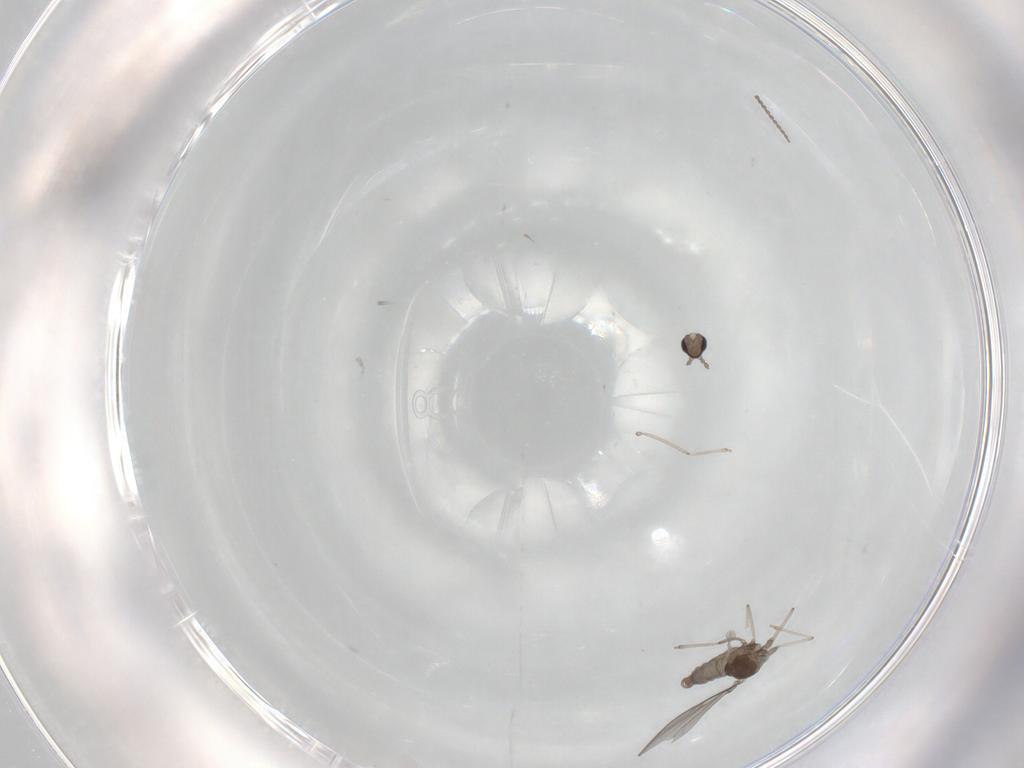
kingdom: Animalia
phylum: Arthropoda
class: Insecta
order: Diptera
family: Cecidomyiidae
